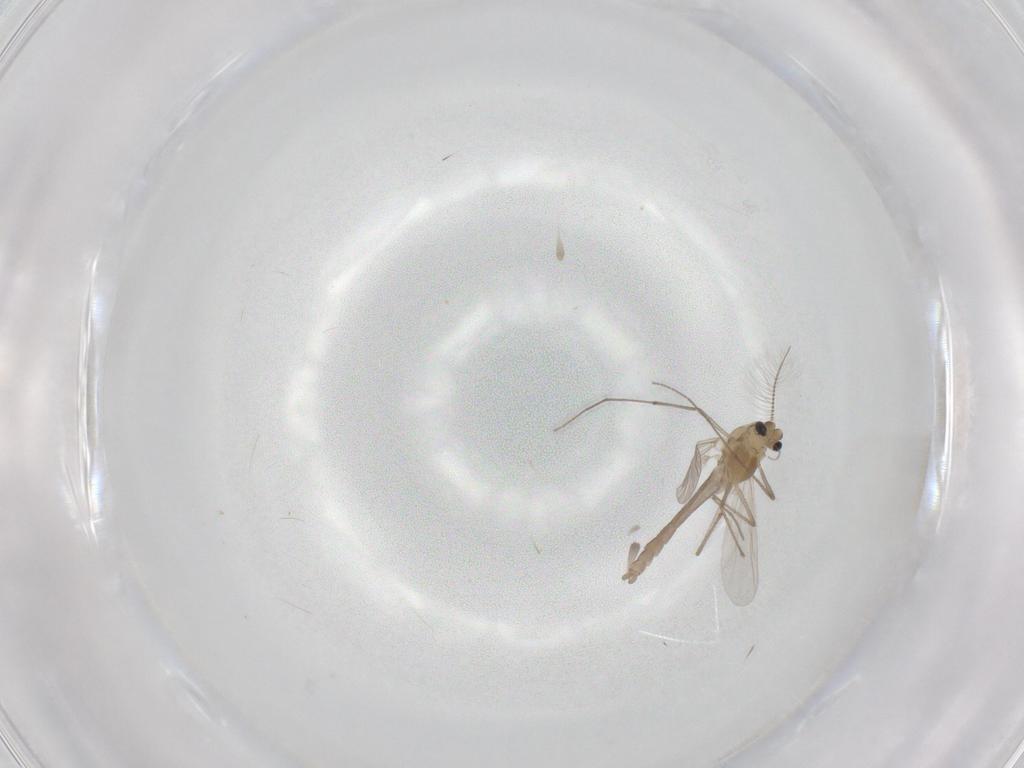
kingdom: Animalia
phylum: Arthropoda
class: Insecta
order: Diptera
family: Chironomidae
